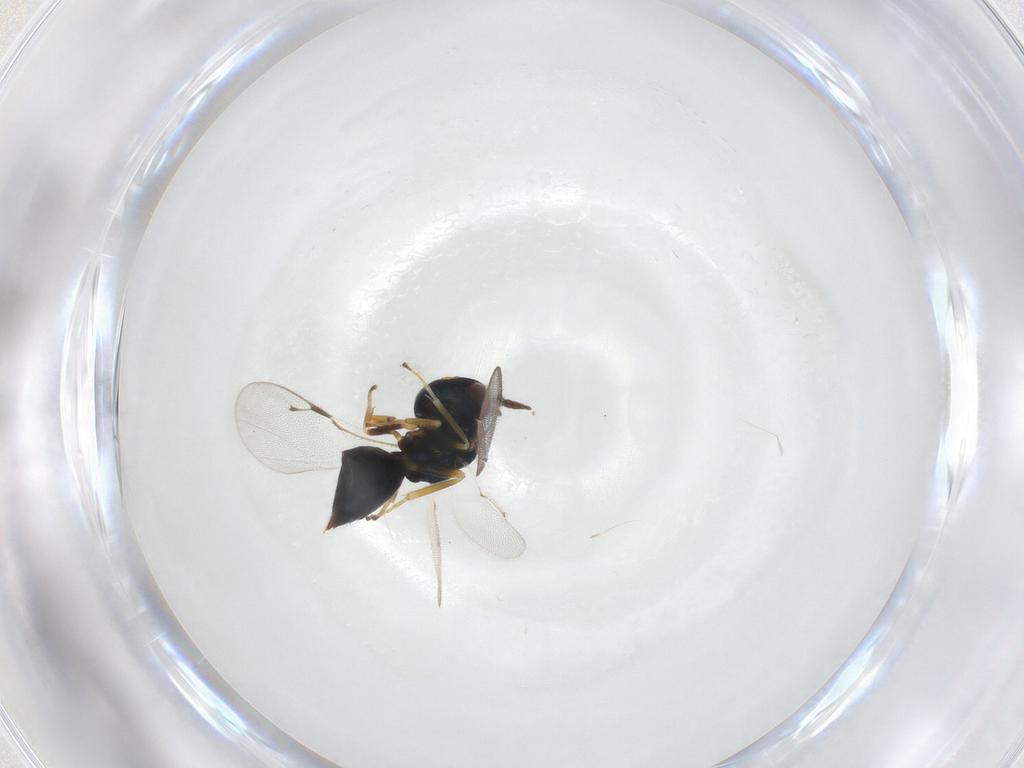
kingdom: Animalia
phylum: Arthropoda
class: Insecta
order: Hymenoptera
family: Pteromalidae
